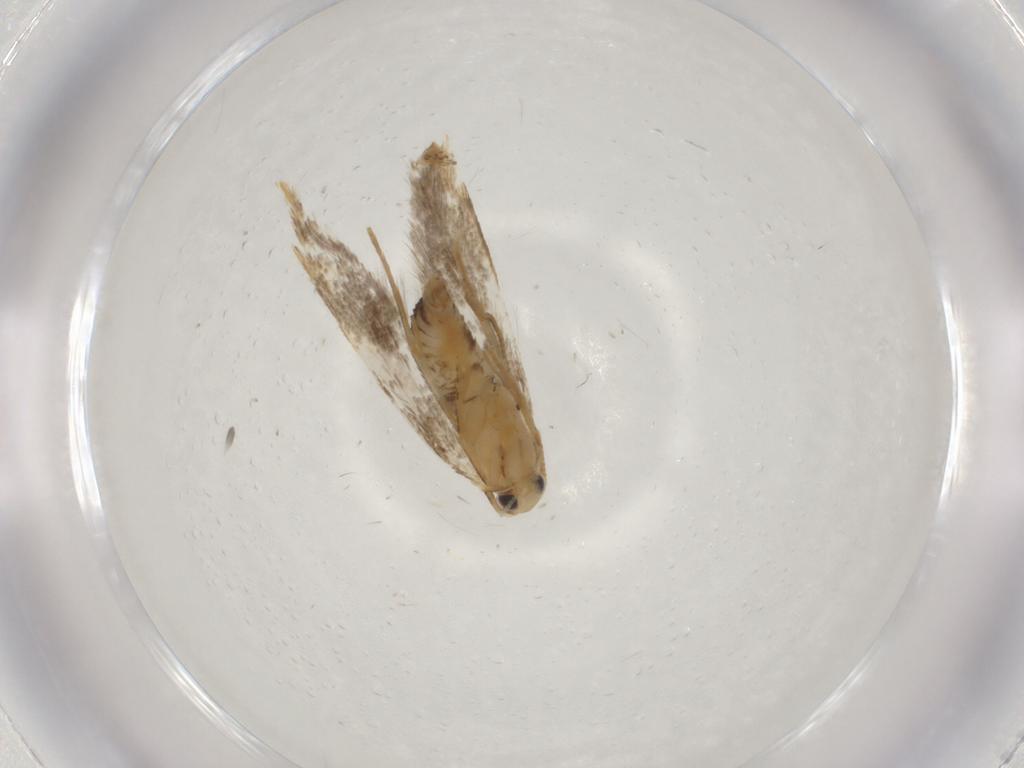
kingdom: Animalia
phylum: Arthropoda
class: Insecta
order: Lepidoptera
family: Tineidae
